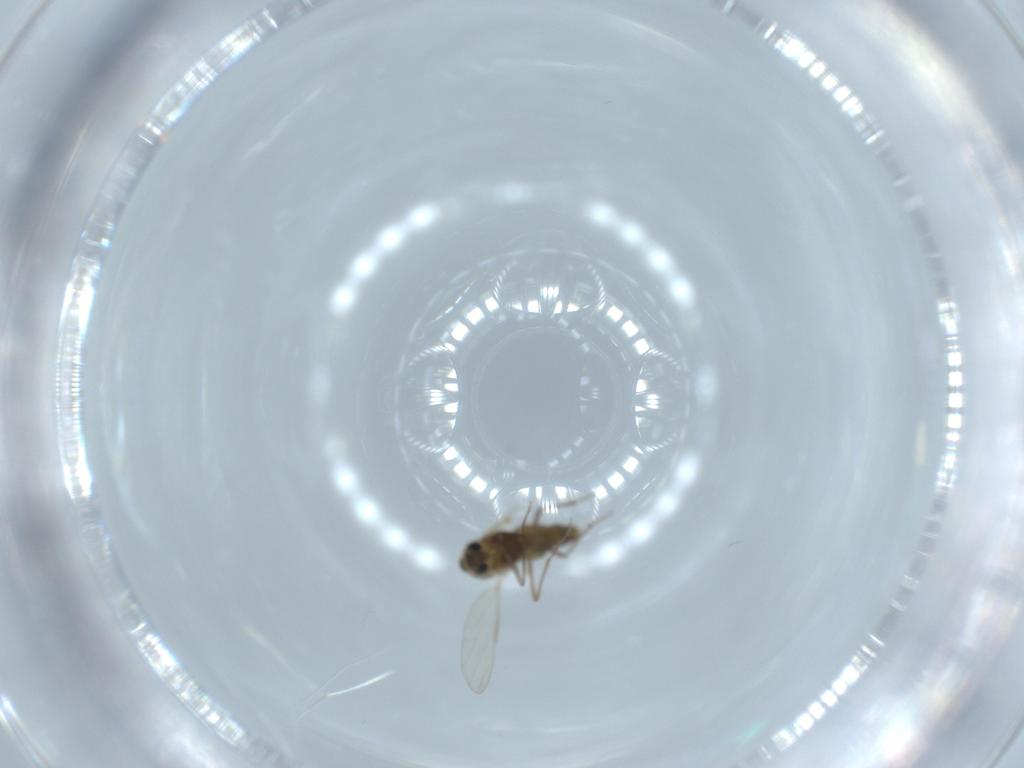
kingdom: Animalia
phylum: Arthropoda
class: Insecta
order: Diptera
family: Chironomidae
